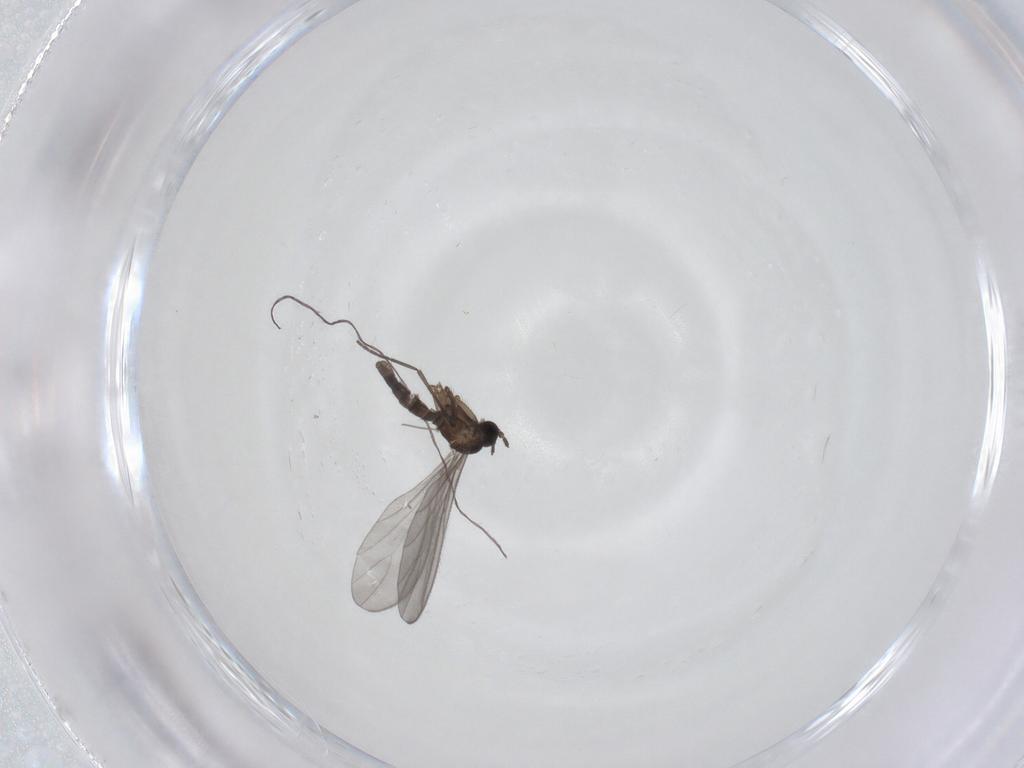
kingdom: Animalia
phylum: Arthropoda
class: Insecta
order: Diptera
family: Sciaridae
